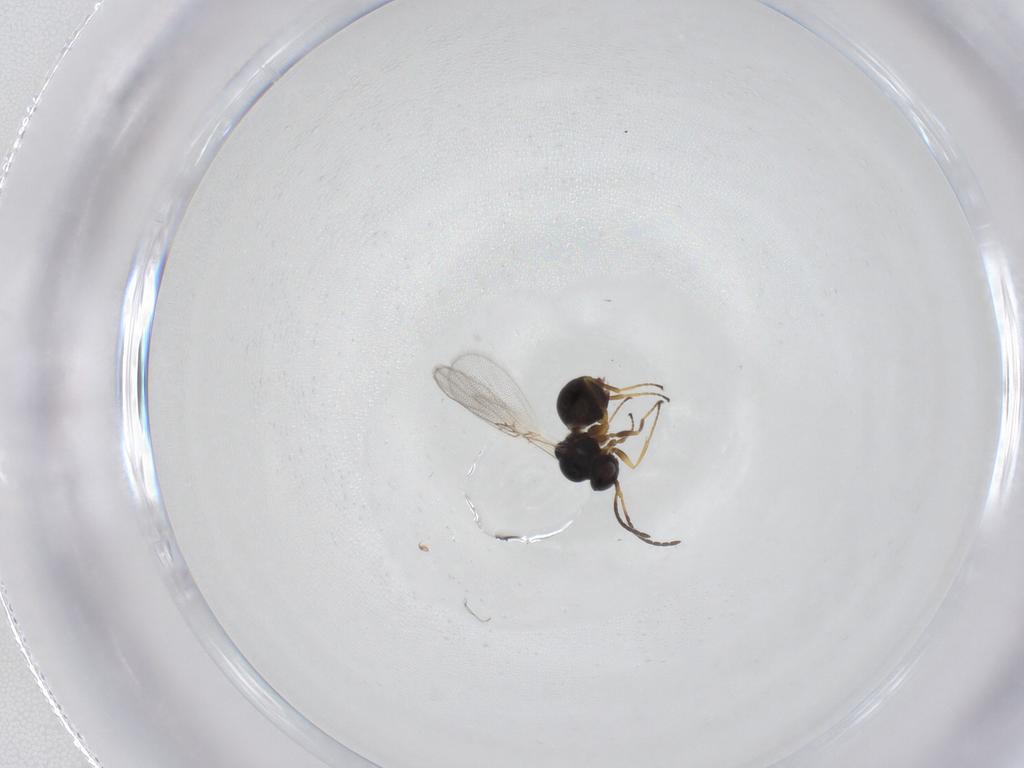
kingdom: Animalia
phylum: Arthropoda
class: Insecta
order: Hymenoptera
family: Figitidae
